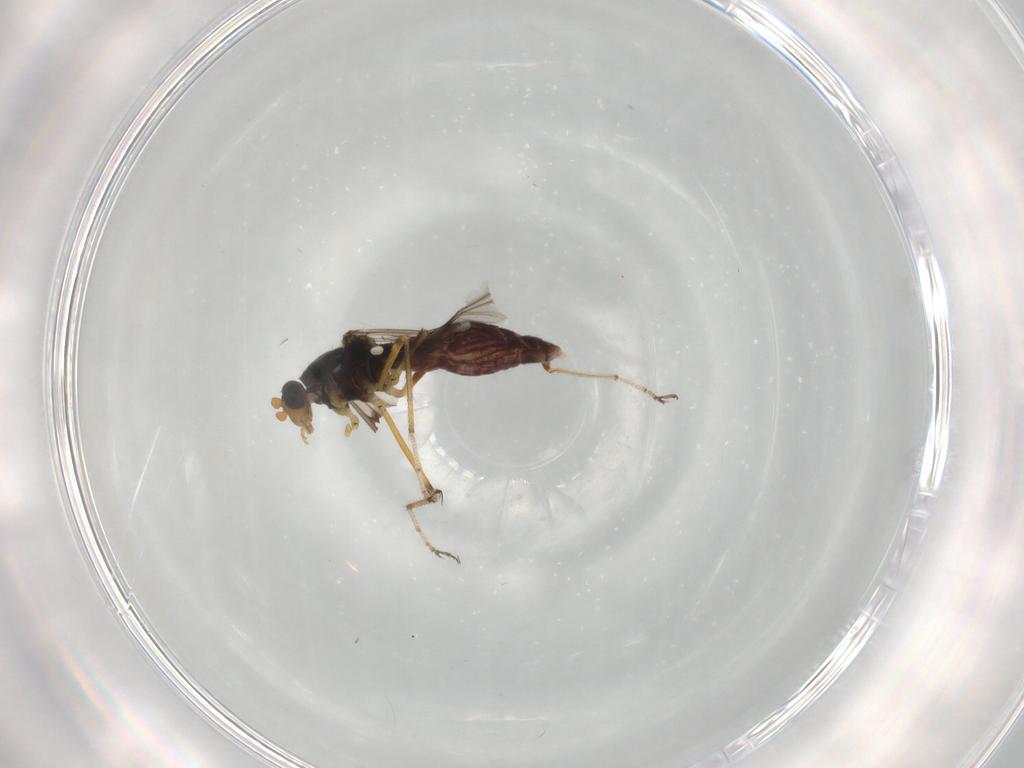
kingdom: Animalia
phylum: Arthropoda
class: Insecta
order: Diptera
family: Ceratopogonidae
